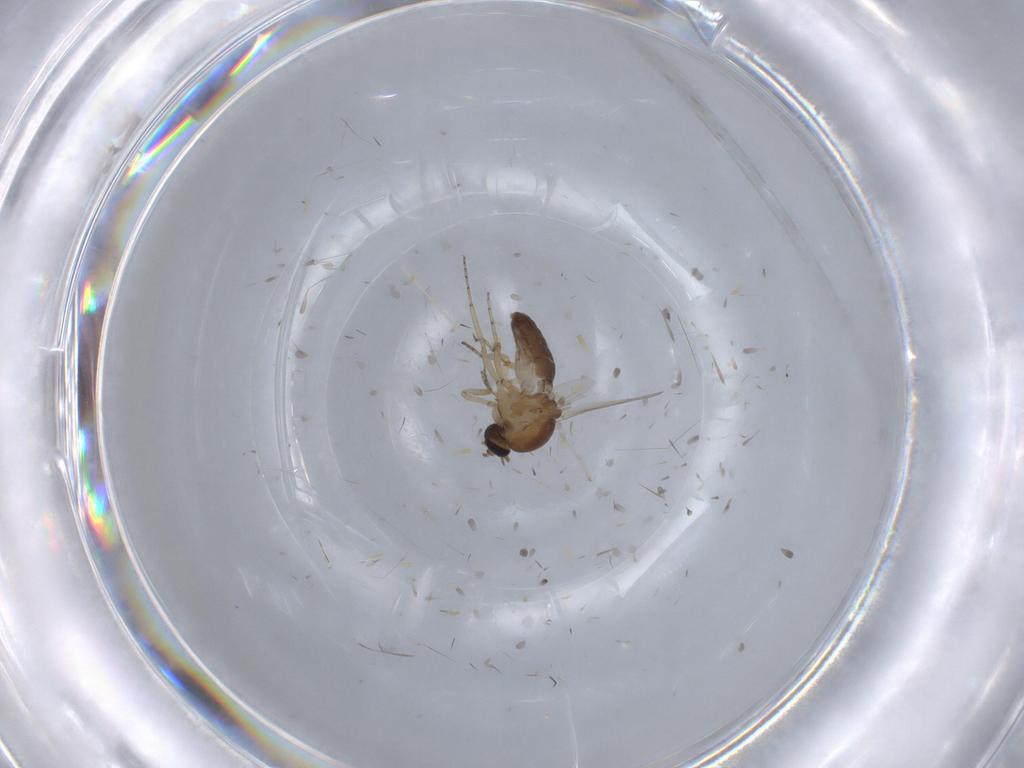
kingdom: Animalia
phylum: Arthropoda
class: Insecta
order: Diptera
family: Ceratopogonidae
